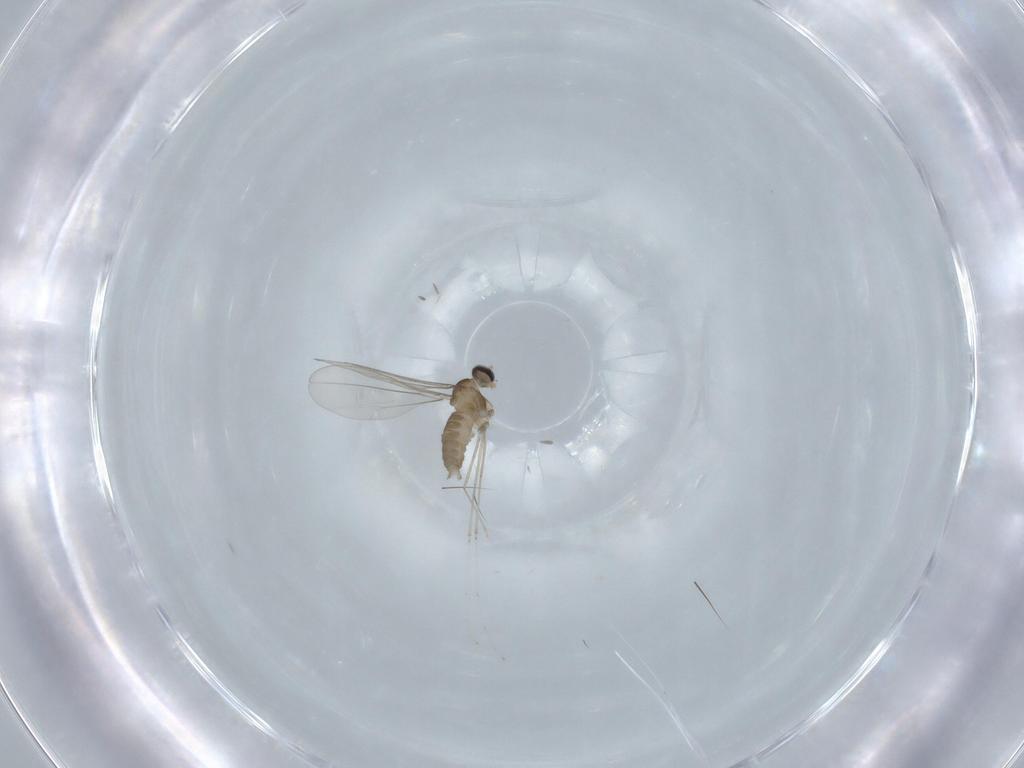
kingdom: Animalia
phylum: Arthropoda
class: Insecta
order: Diptera
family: Cecidomyiidae
